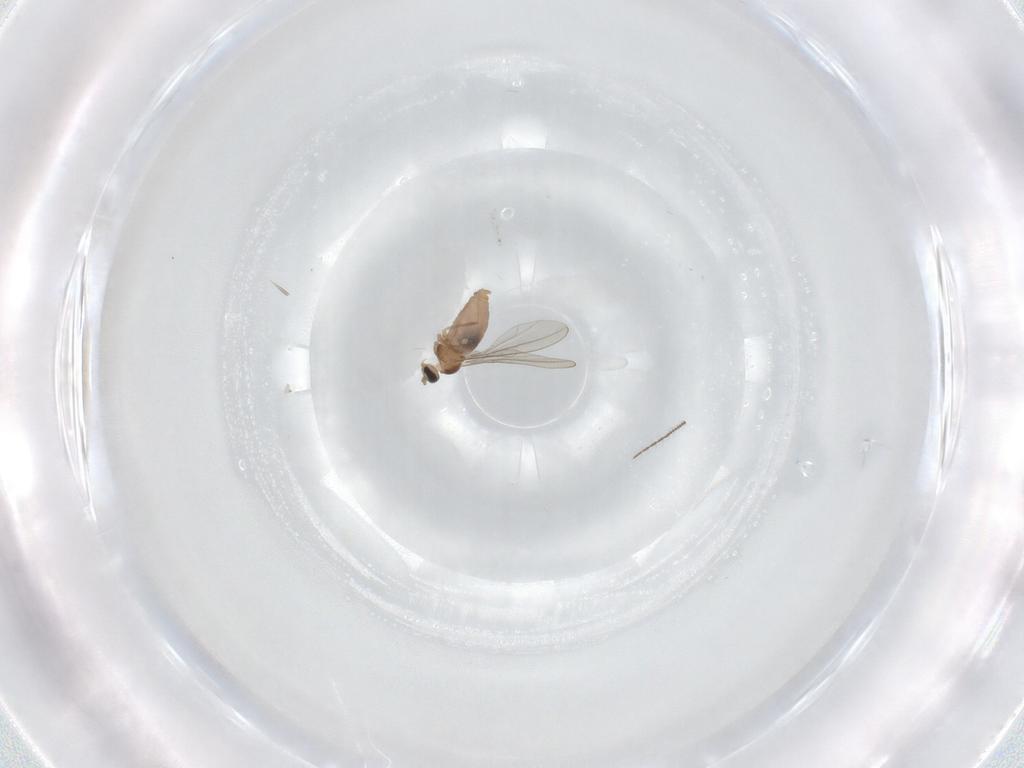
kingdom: Animalia
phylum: Arthropoda
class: Insecta
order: Diptera
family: Cecidomyiidae
